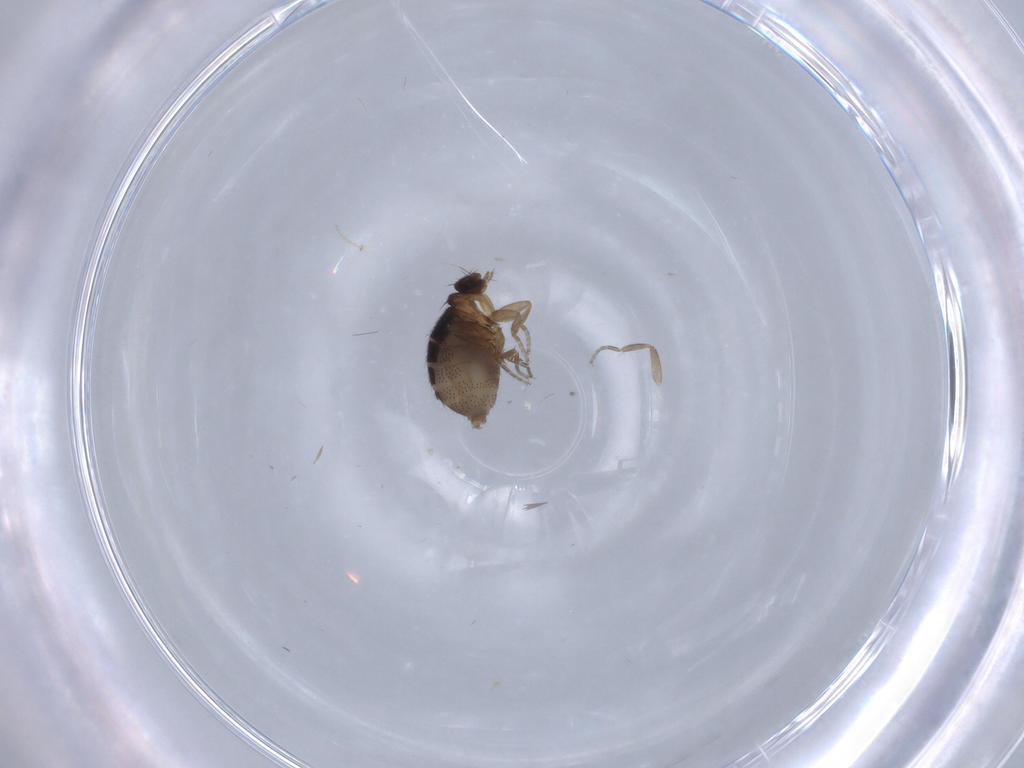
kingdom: Animalia
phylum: Arthropoda
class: Insecta
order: Diptera
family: Phoridae
